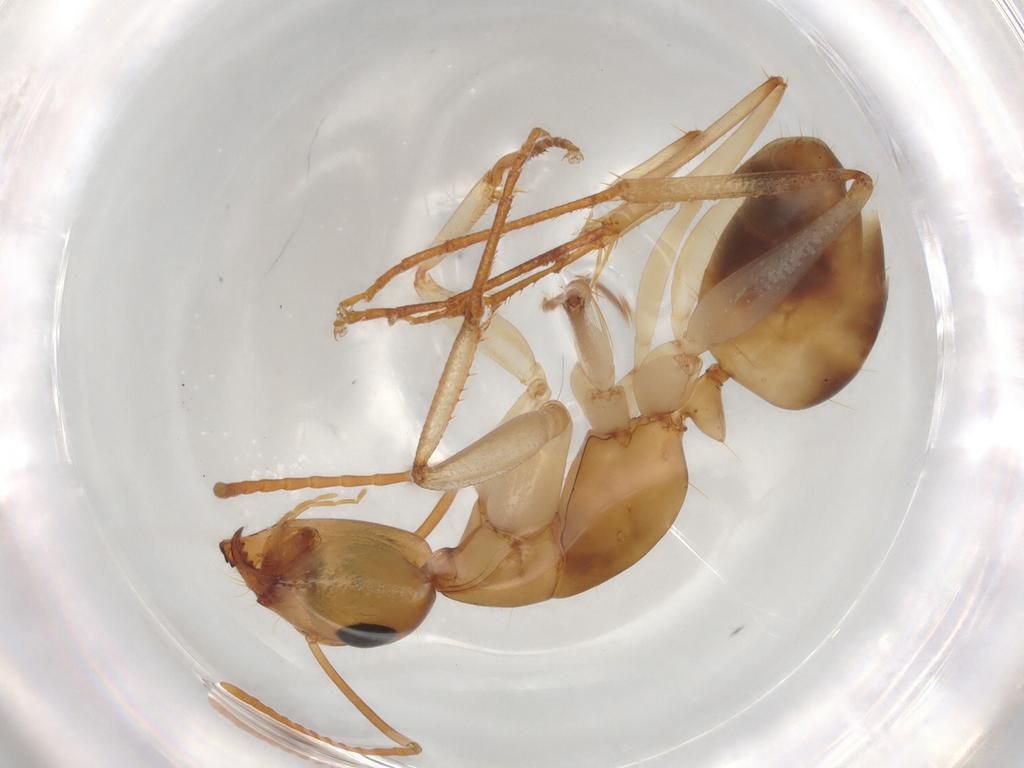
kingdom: Animalia
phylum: Arthropoda
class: Insecta
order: Hymenoptera
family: Formicidae
